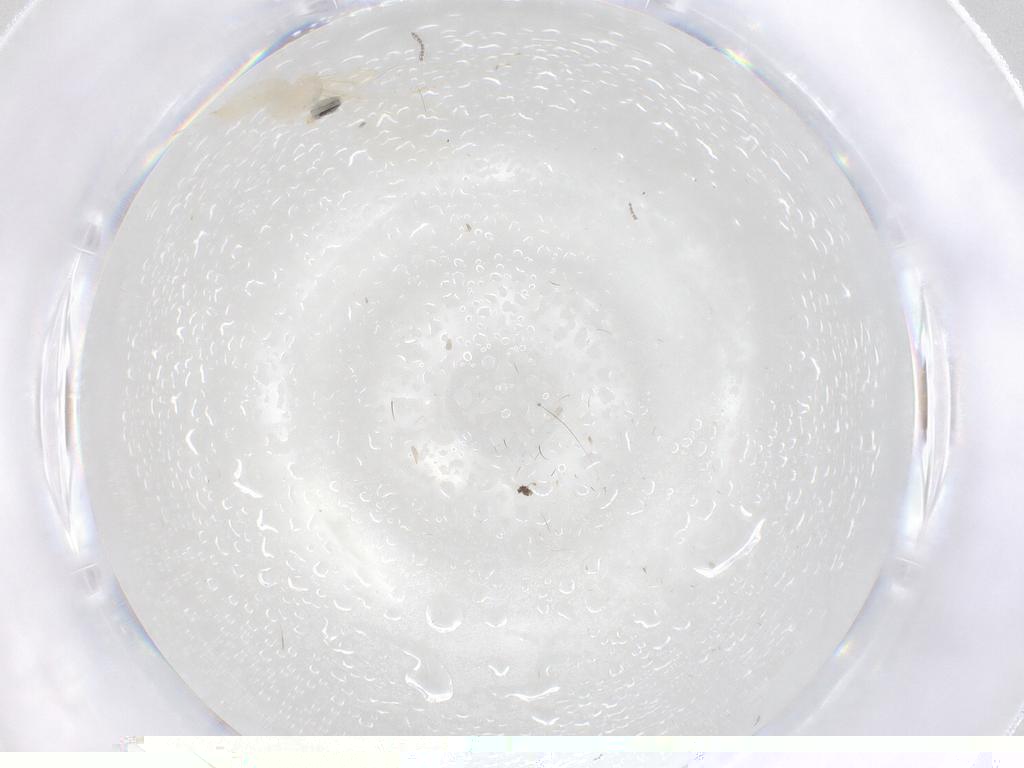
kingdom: Animalia
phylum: Arthropoda
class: Insecta
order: Diptera
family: Cecidomyiidae
